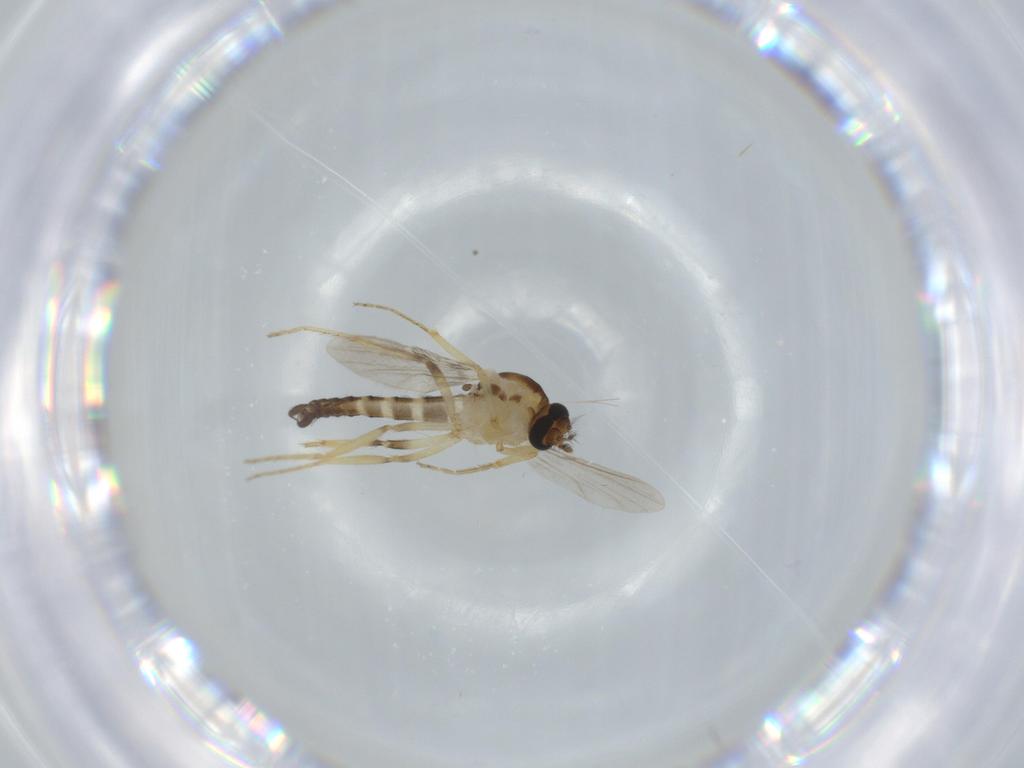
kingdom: Animalia
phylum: Arthropoda
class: Insecta
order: Diptera
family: Ceratopogonidae
